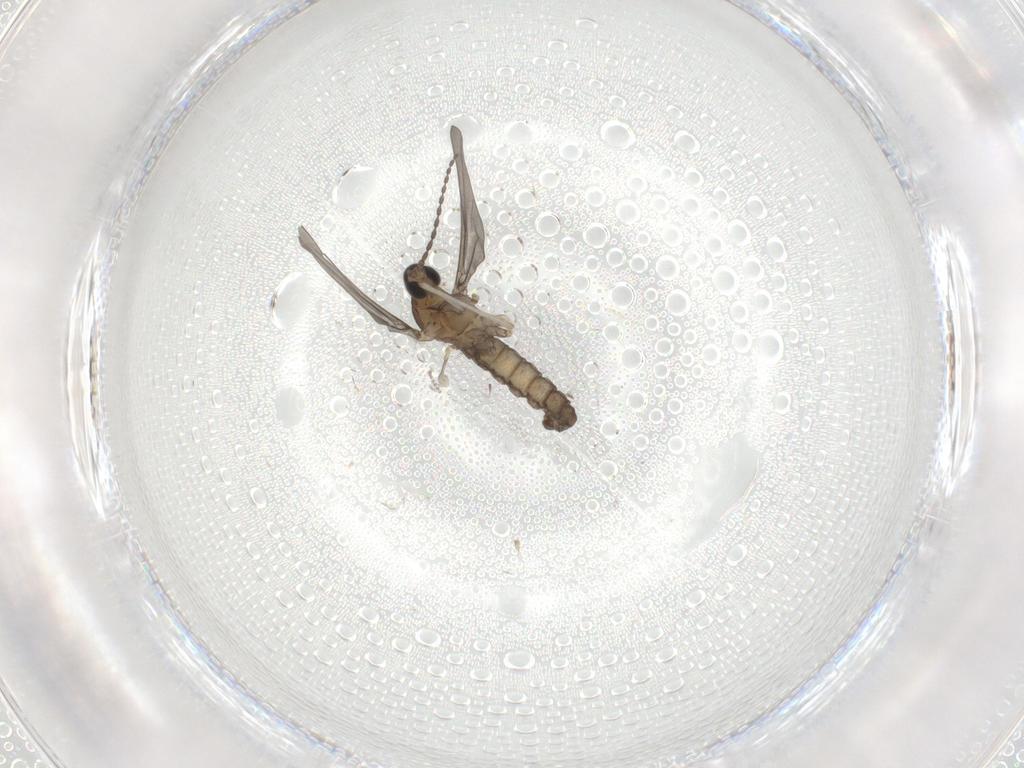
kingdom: Animalia
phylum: Arthropoda
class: Insecta
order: Diptera
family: Cecidomyiidae
